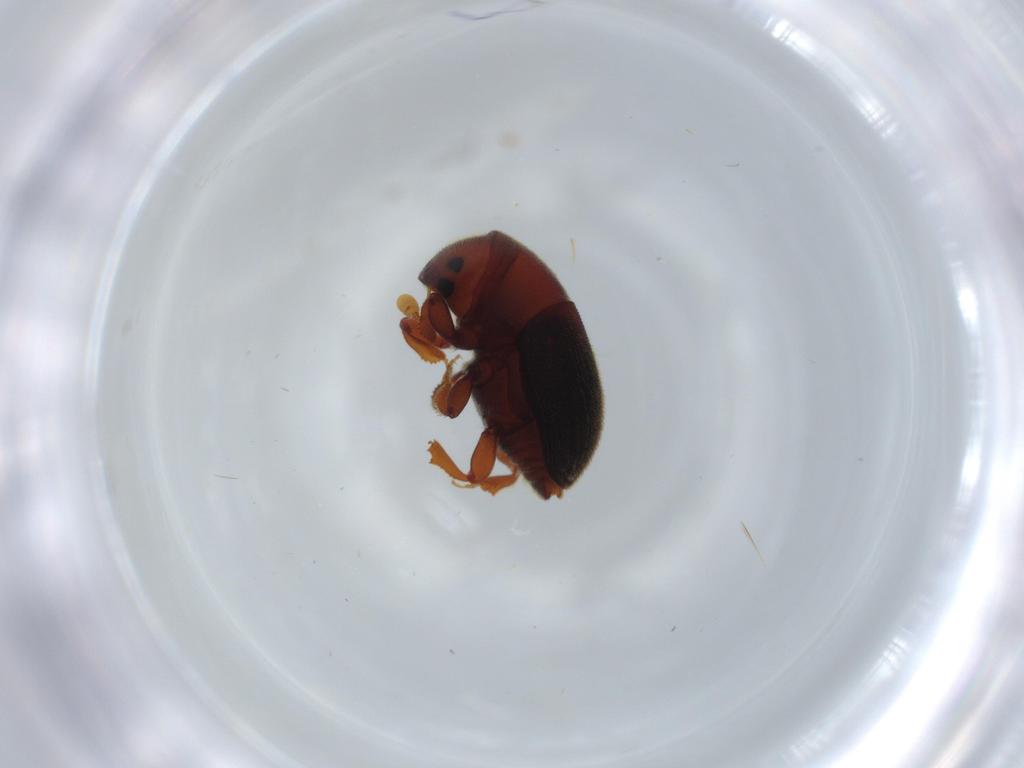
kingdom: Animalia
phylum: Arthropoda
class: Insecta
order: Coleoptera
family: Curculionidae
